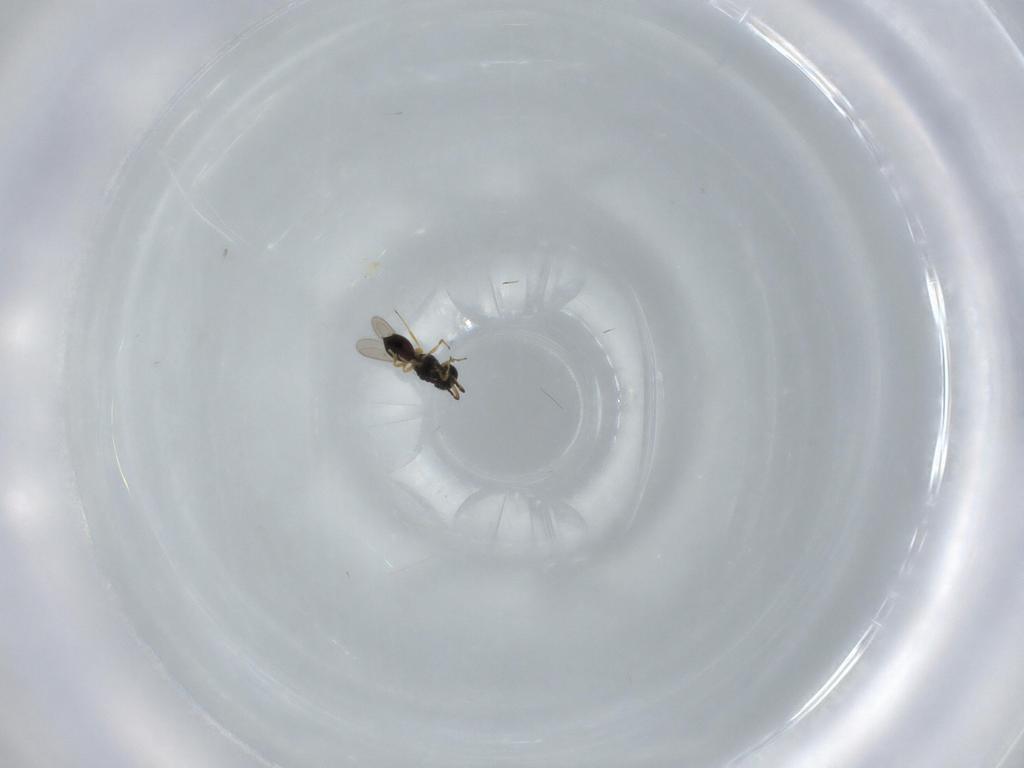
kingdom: Animalia
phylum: Arthropoda
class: Insecta
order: Hymenoptera
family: Scelionidae
